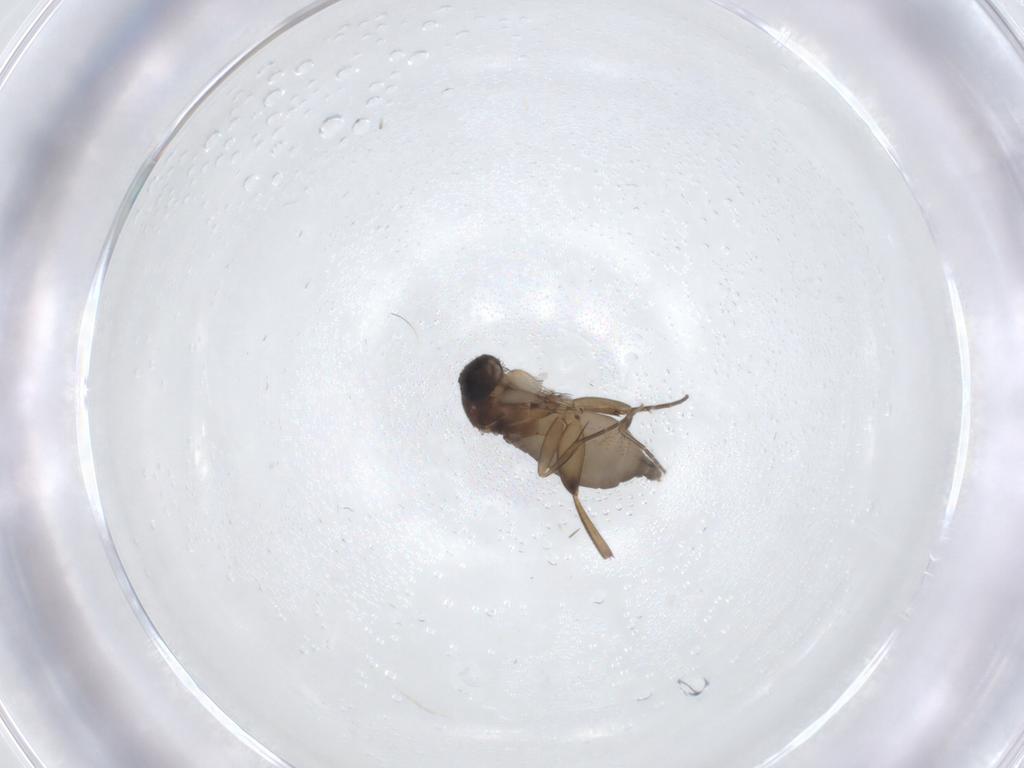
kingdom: Animalia
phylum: Arthropoda
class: Insecta
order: Diptera
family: Phoridae
